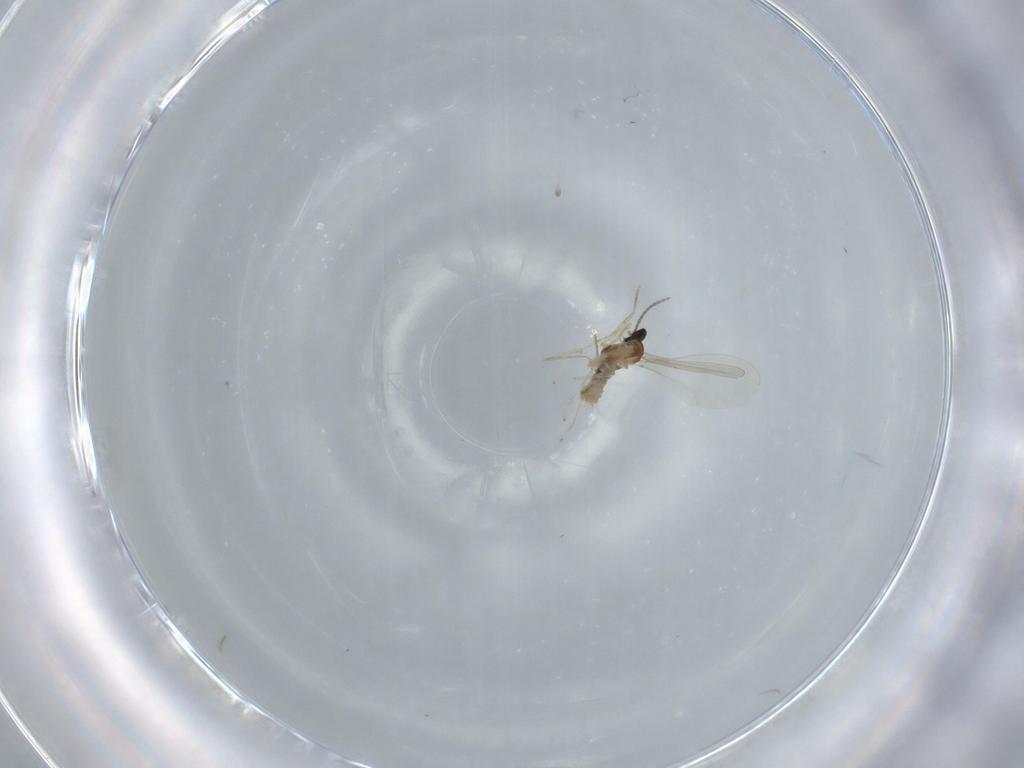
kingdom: Animalia
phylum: Arthropoda
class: Insecta
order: Diptera
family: Cecidomyiidae
